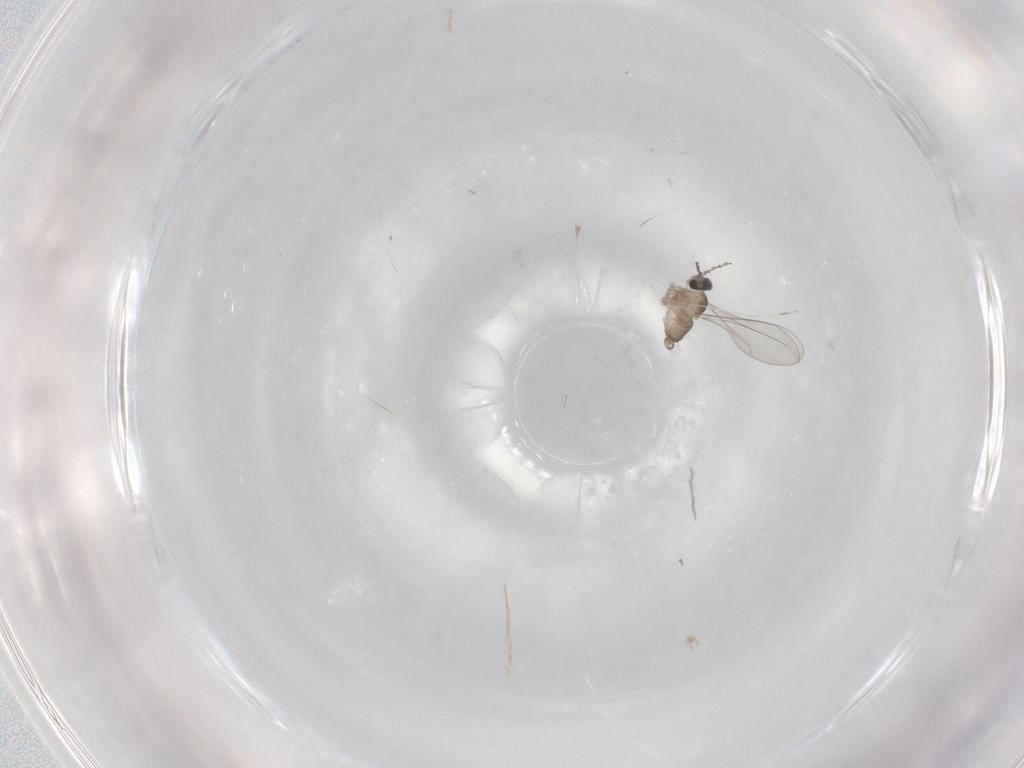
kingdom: Animalia
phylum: Arthropoda
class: Insecta
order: Diptera
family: Cecidomyiidae
